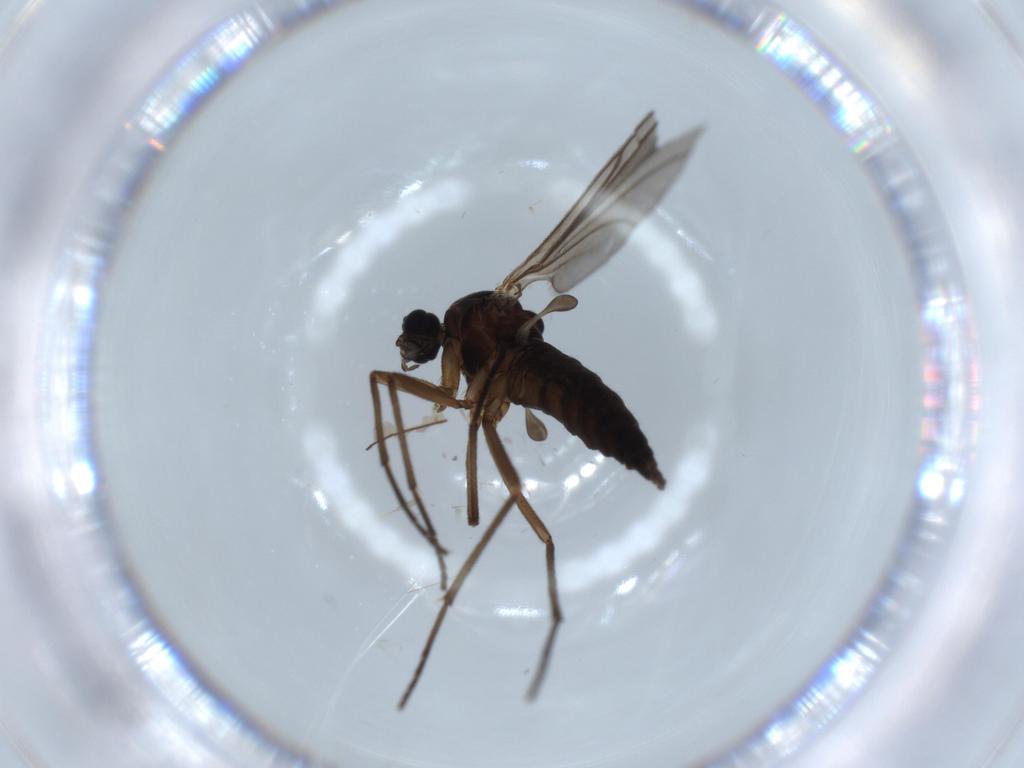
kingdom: Animalia
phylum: Arthropoda
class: Insecta
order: Diptera
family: Sciaridae
